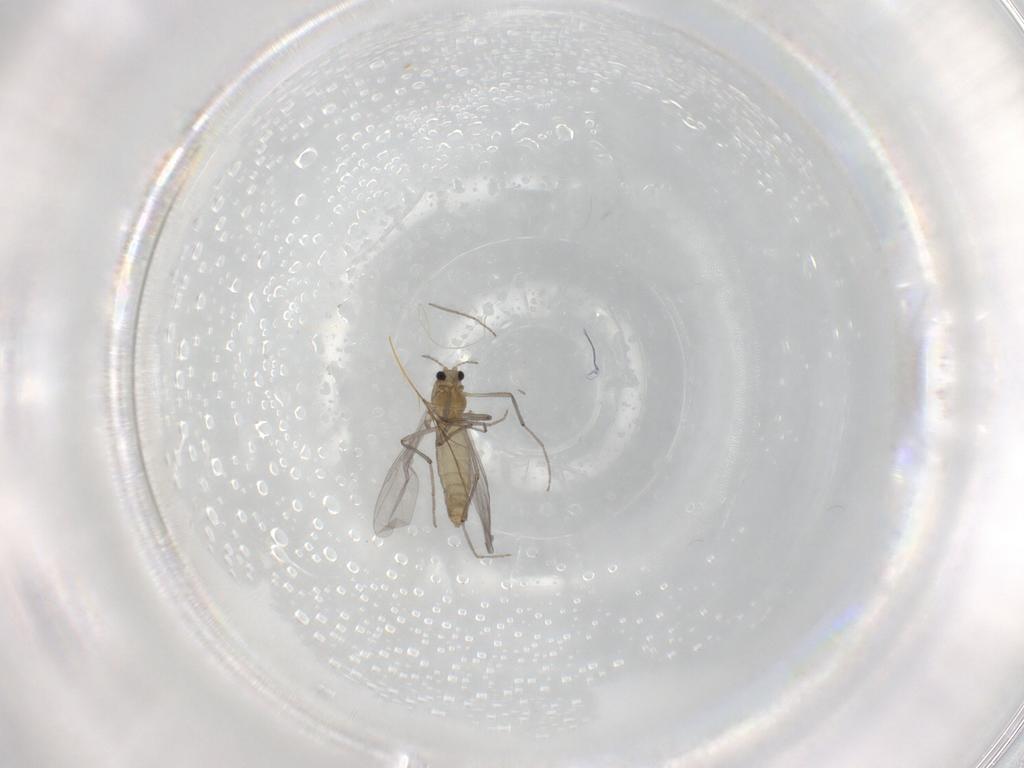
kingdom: Animalia
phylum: Arthropoda
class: Insecta
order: Diptera
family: Chironomidae
